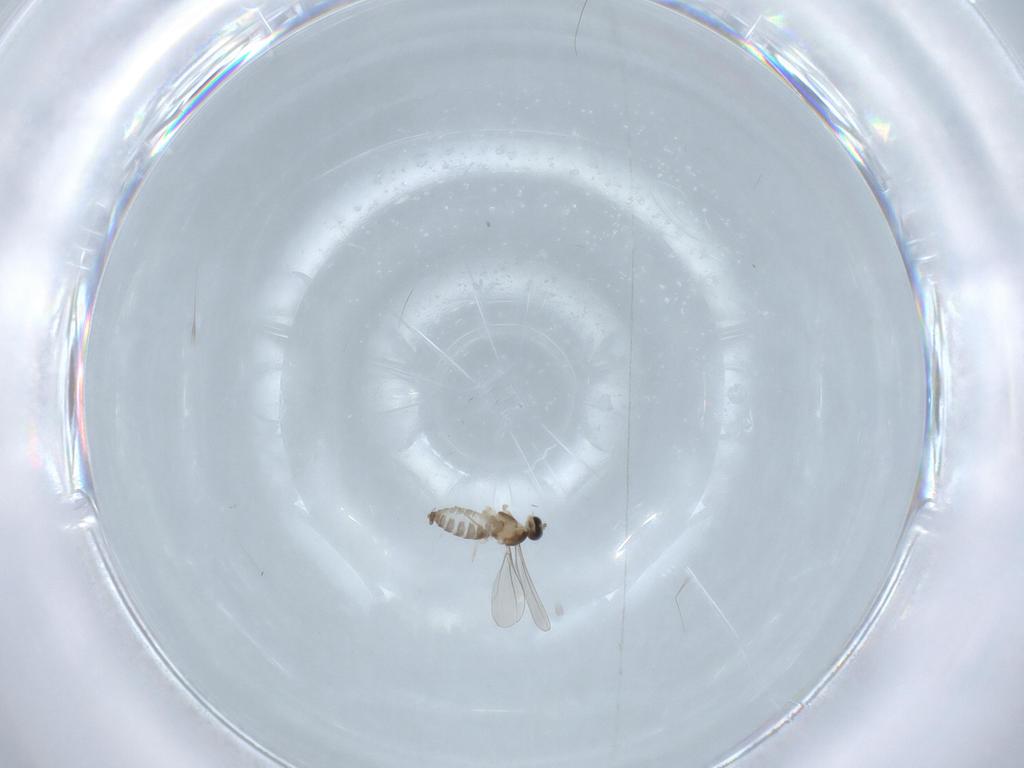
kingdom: Animalia
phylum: Arthropoda
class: Insecta
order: Diptera
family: Cecidomyiidae
